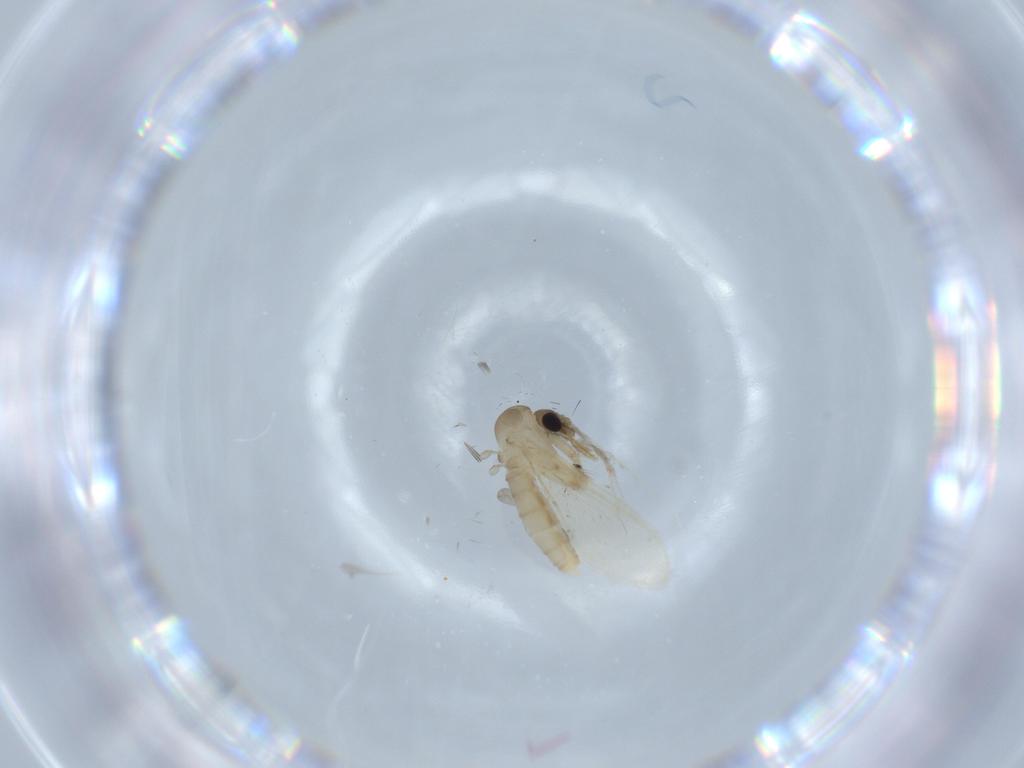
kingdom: Animalia
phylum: Arthropoda
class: Insecta
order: Diptera
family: Psychodidae
